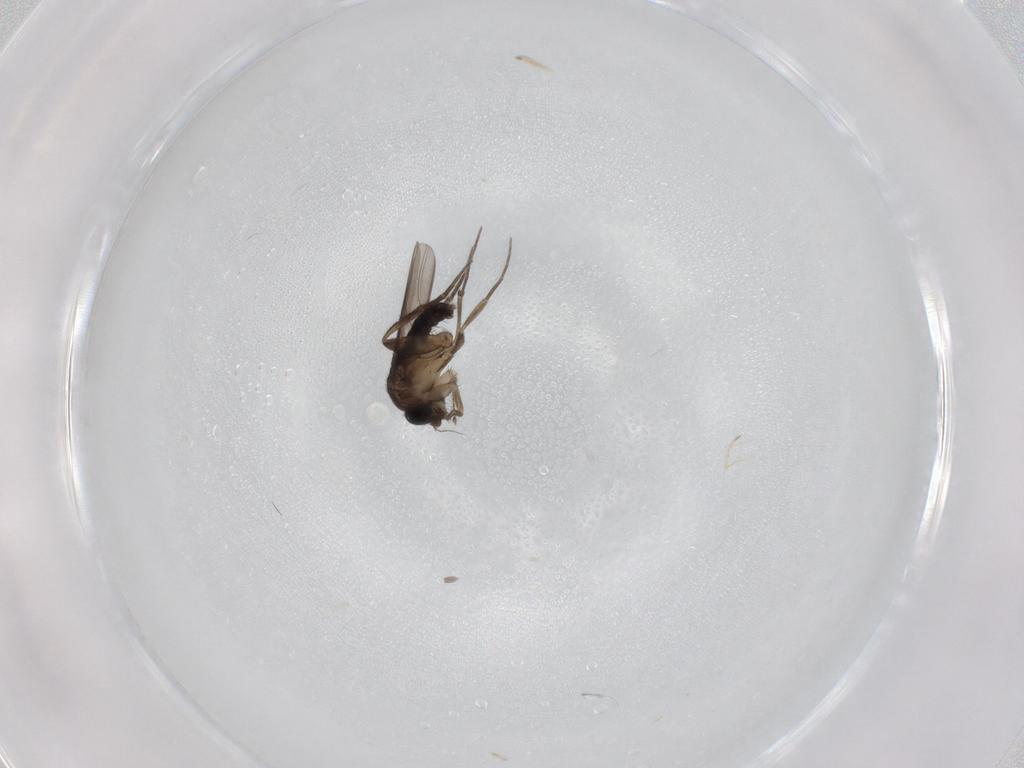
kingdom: Animalia
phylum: Arthropoda
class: Insecta
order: Diptera
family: Phoridae
